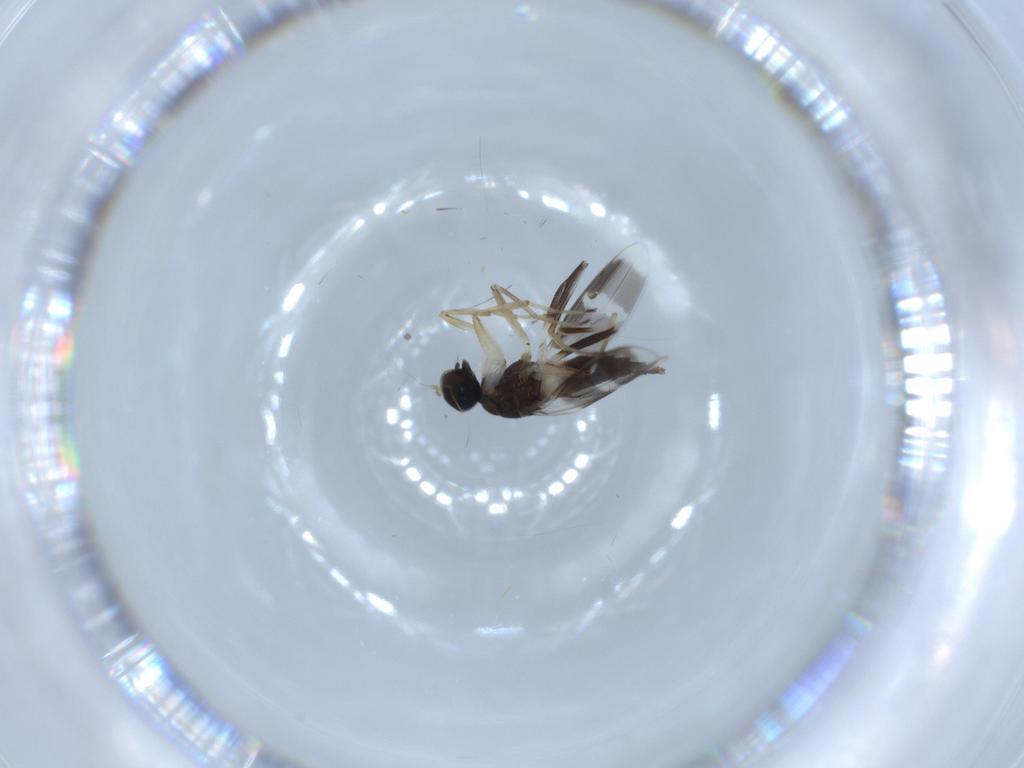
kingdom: Animalia
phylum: Arthropoda
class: Insecta
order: Diptera
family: Hybotidae
